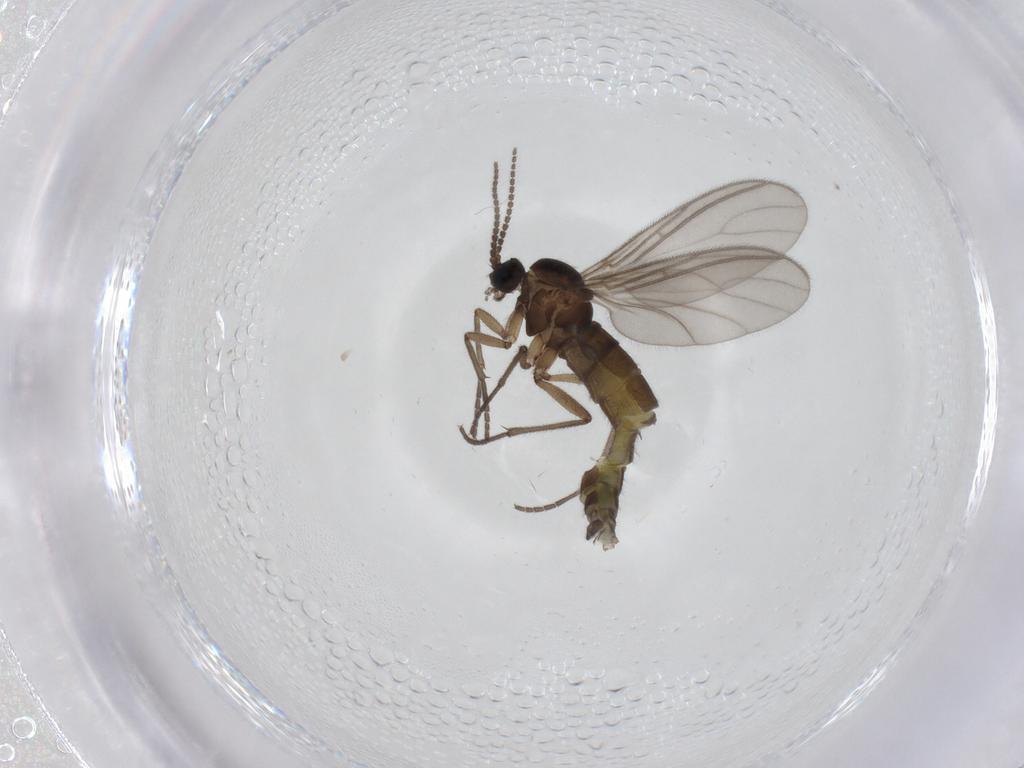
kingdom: Animalia
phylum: Arthropoda
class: Insecta
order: Diptera
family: Sciaridae
